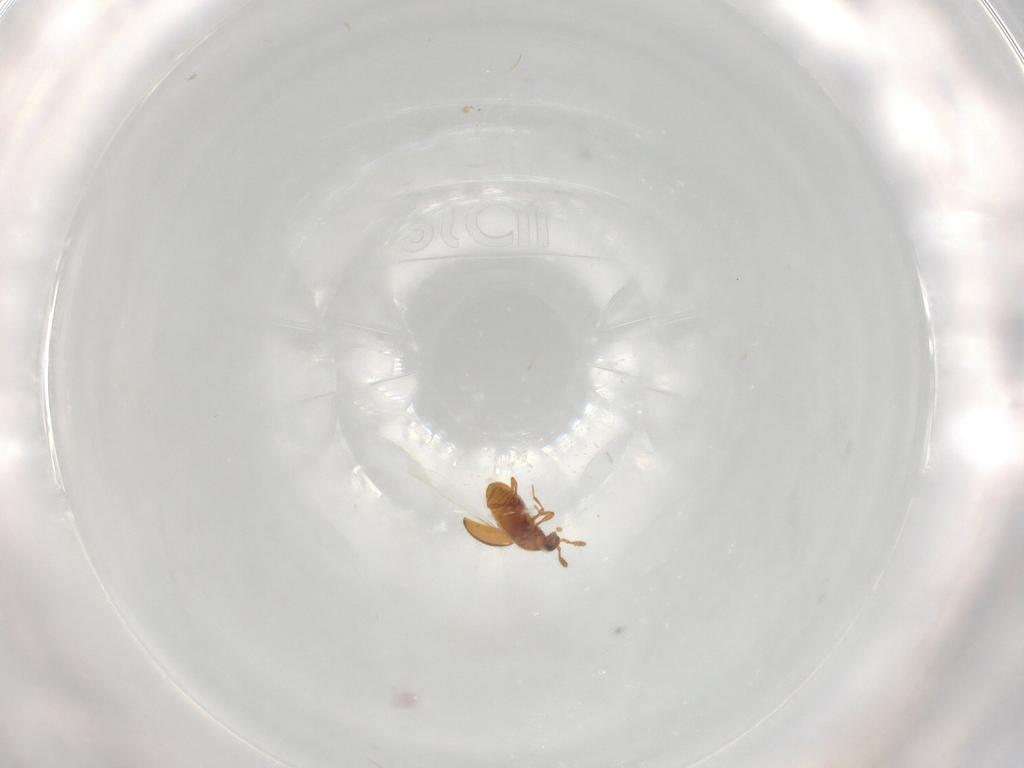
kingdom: Animalia
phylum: Arthropoda
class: Insecta
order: Coleoptera
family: Staphylinidae
